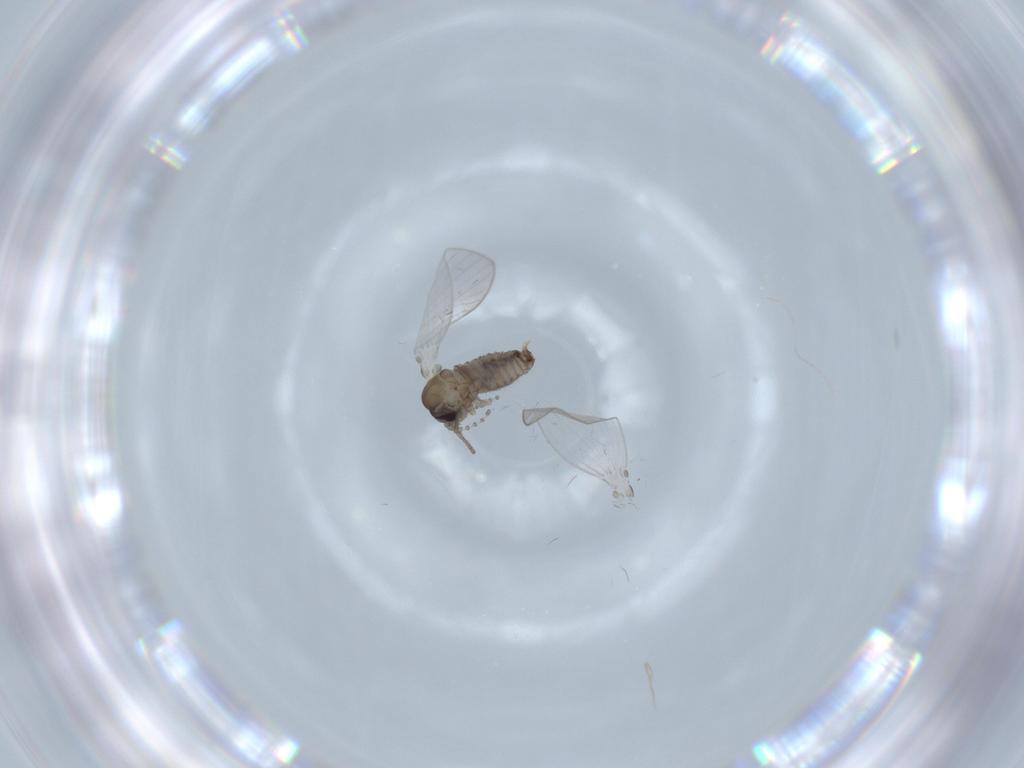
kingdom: Animalia
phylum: Arthropoda
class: Insecta
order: Diptera
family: Psychodidae
